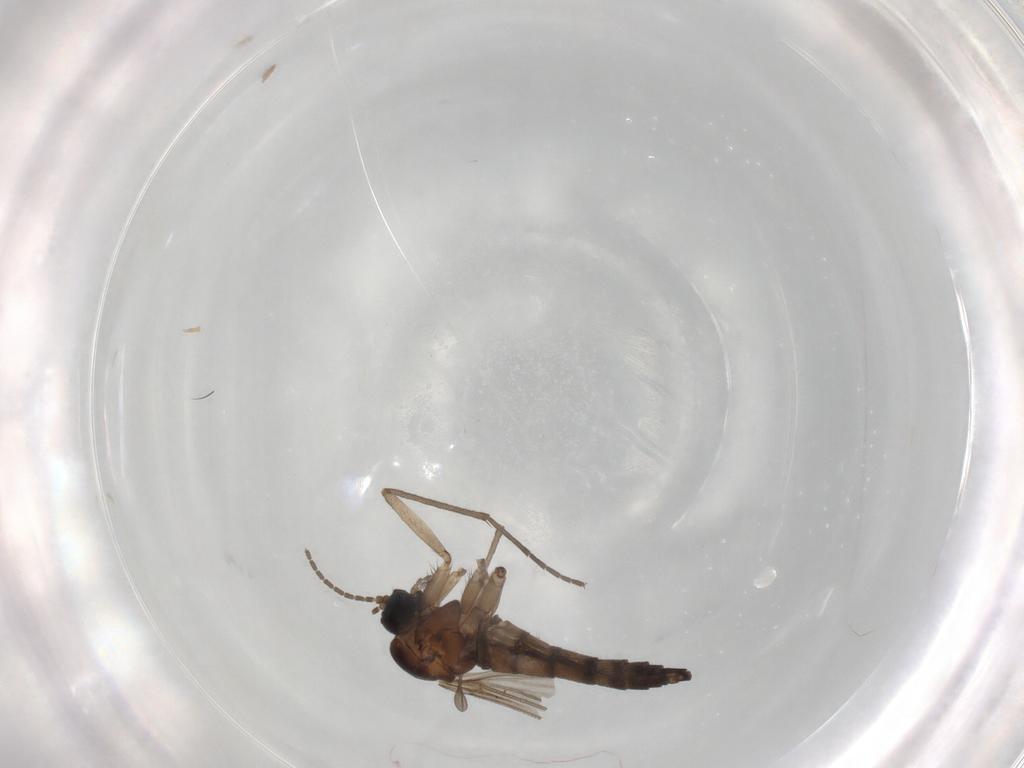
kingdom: Animalia
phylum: Arthropoda
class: Insecta
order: Diptera
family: Sciaridae
